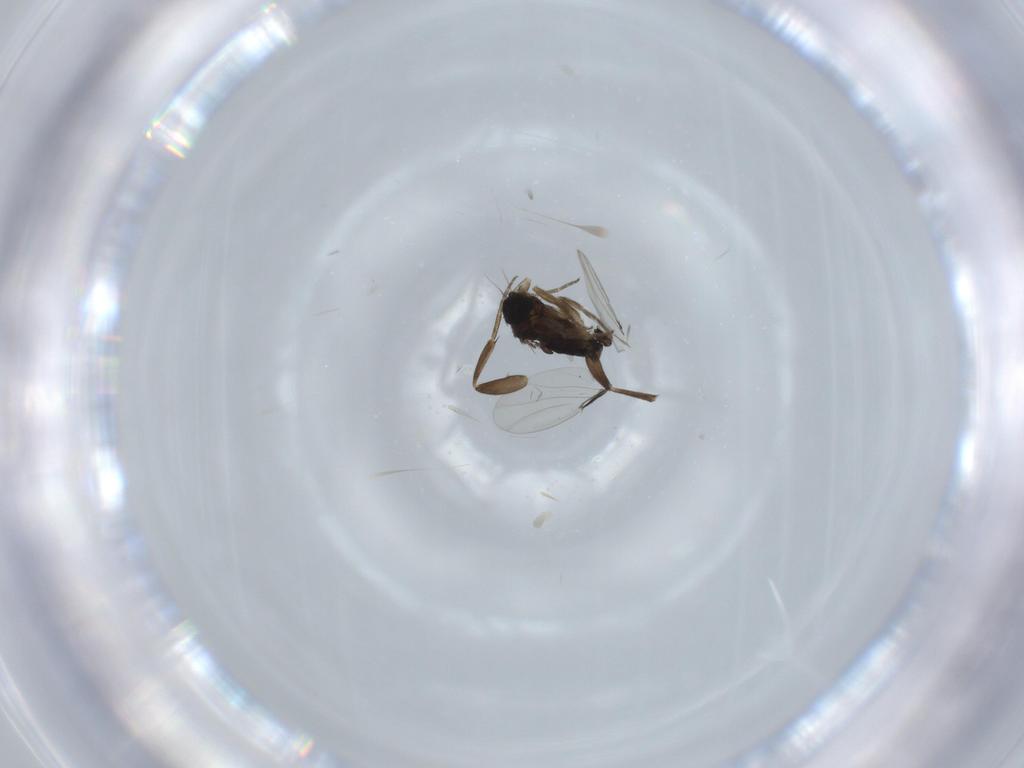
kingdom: Animalia
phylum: Arthropoda
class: Insecta
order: Diptera
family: Phoridae
